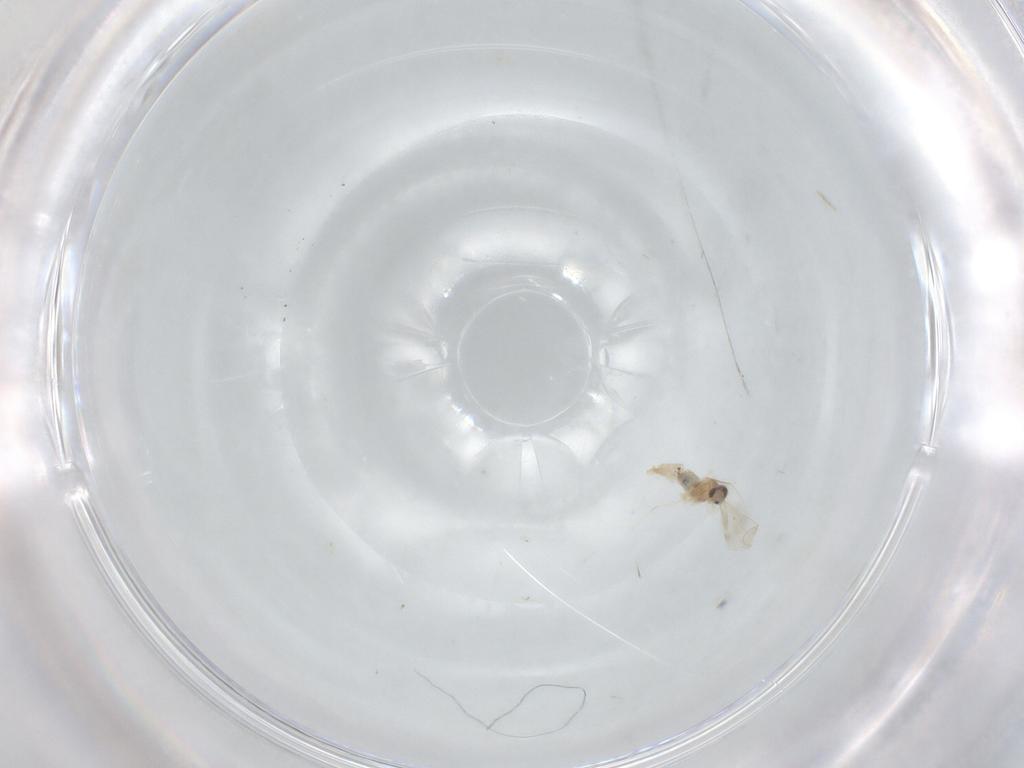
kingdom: Animalia
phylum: Arthropoda
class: Insecta
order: Diptera
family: Cecidomyiidae
